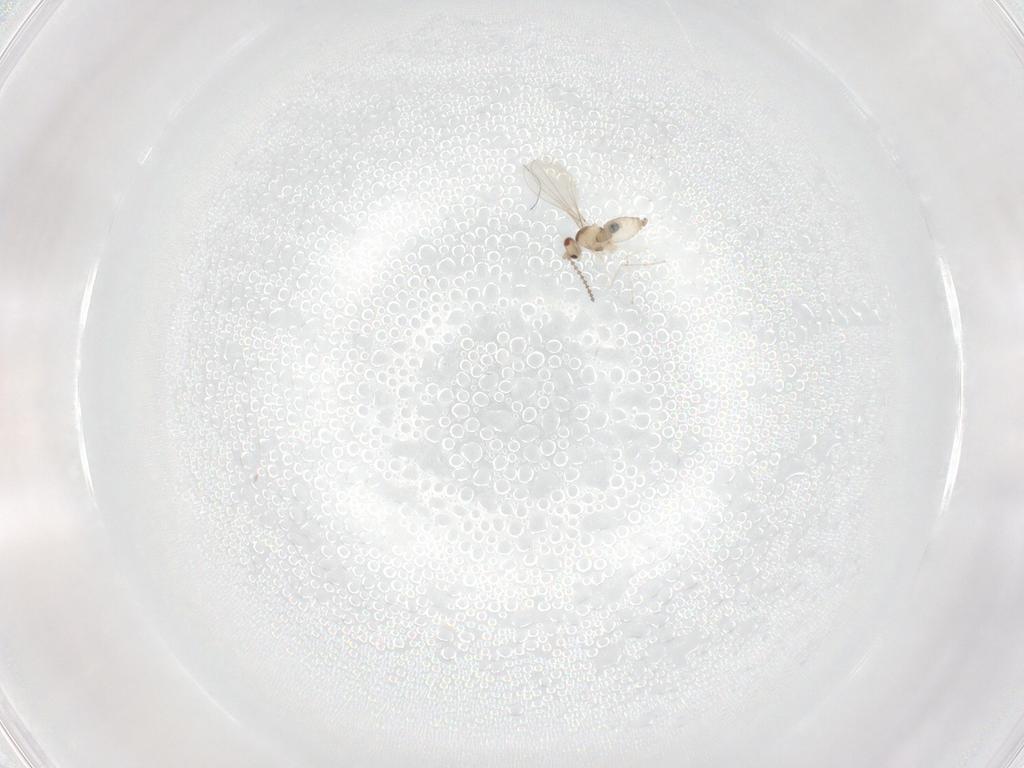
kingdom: Animalia
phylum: Arthropoda
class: Insecta
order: Diptera
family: Cecidomyiidae
